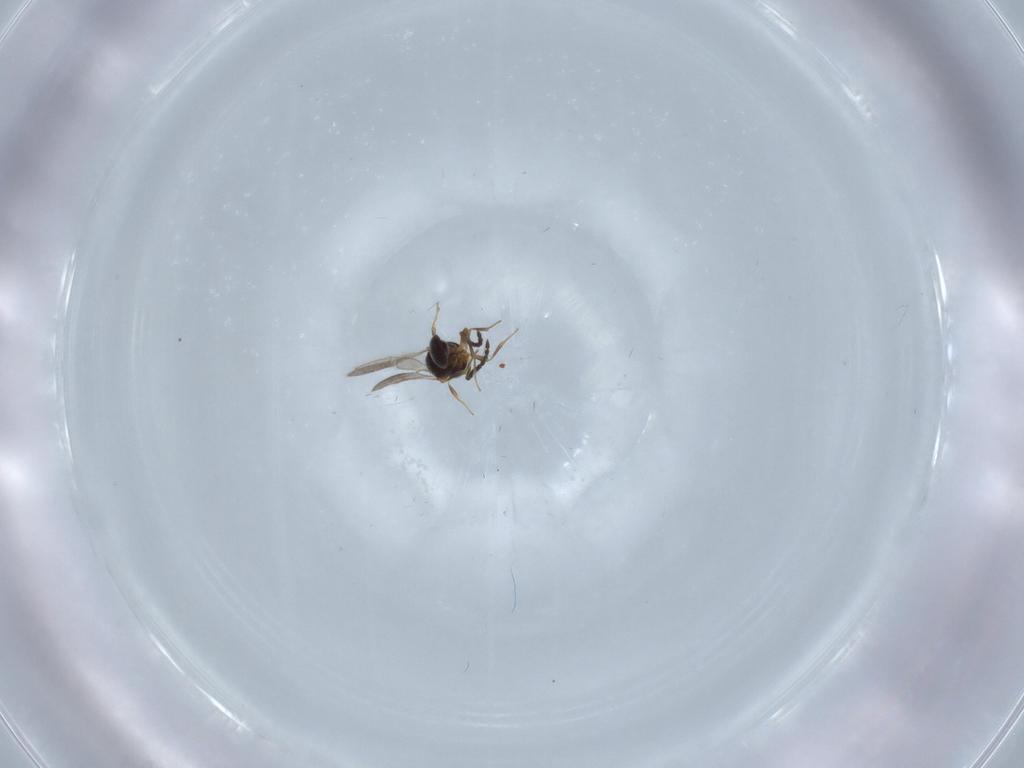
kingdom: Animalia
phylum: Arthropoda
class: Insecta
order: Hymenoptera
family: Scelionidae
